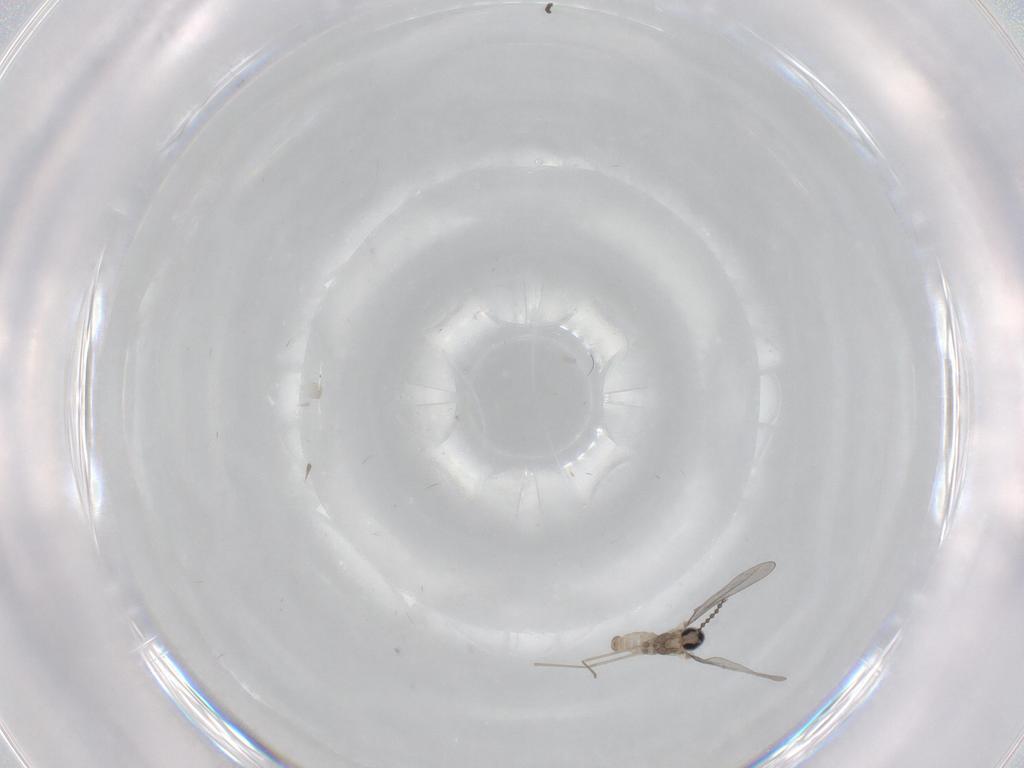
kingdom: Animalia
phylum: Arthropoda
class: Insecta
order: Diptera
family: Cecidomyiidae
